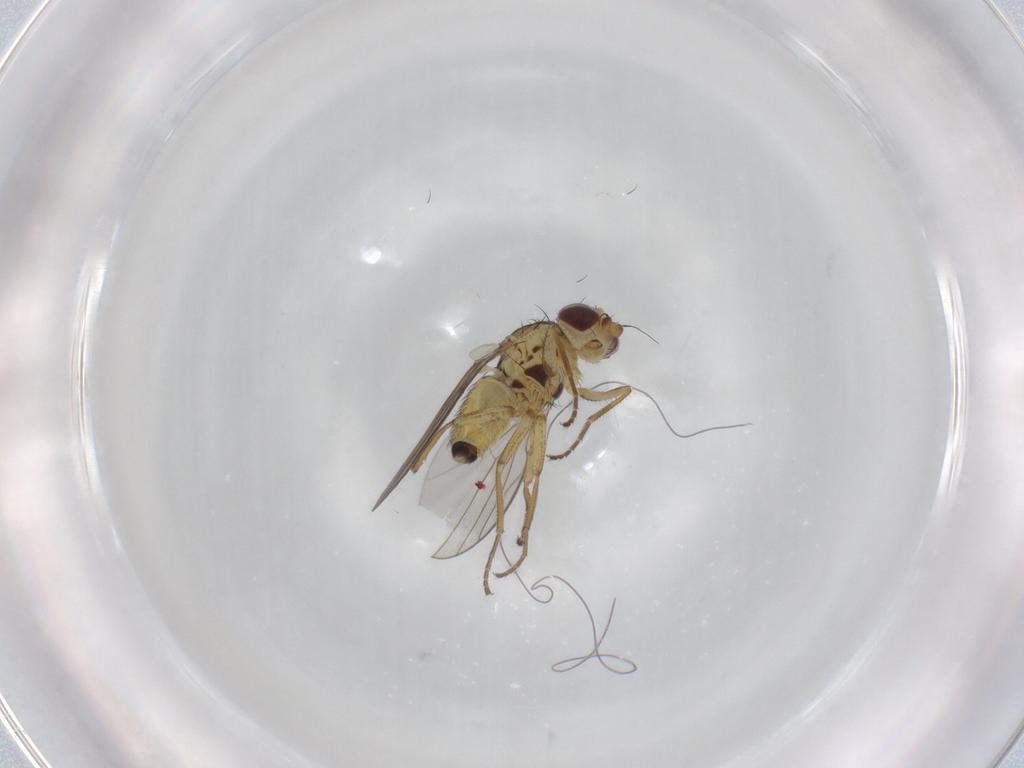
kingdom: Animalia
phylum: Arthropoda
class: Insecta
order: Diptera
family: Agromyzidae
